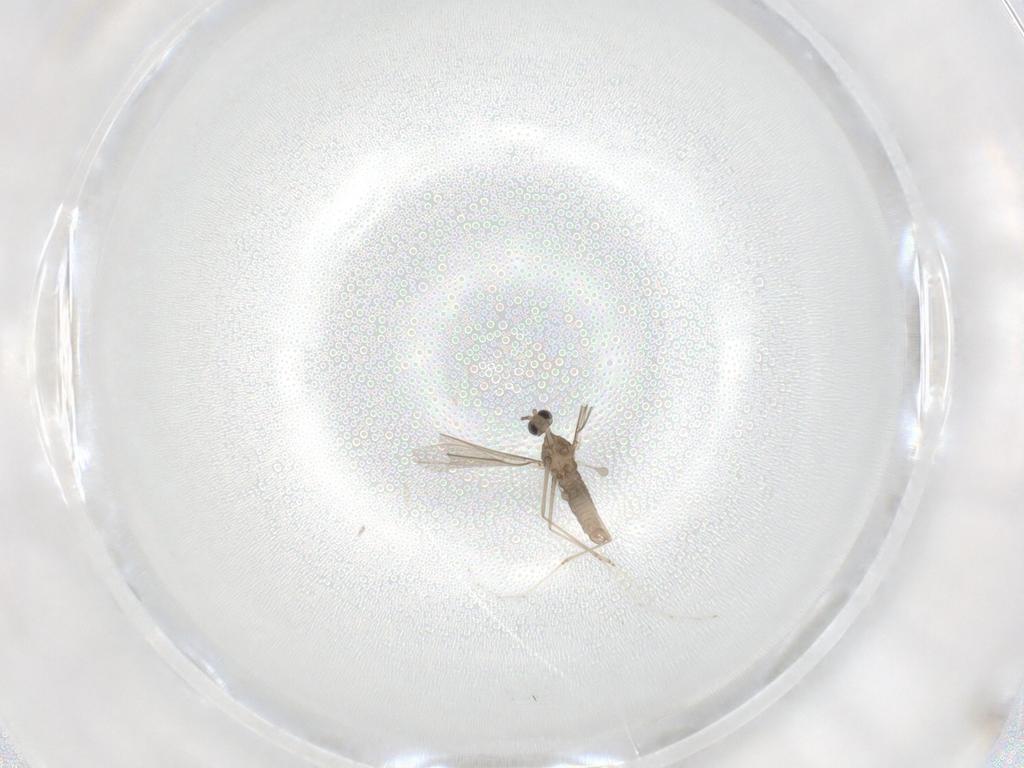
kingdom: Animalia
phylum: Arthropoda
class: Insecta
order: Diptera
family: Cecidomyiidae
